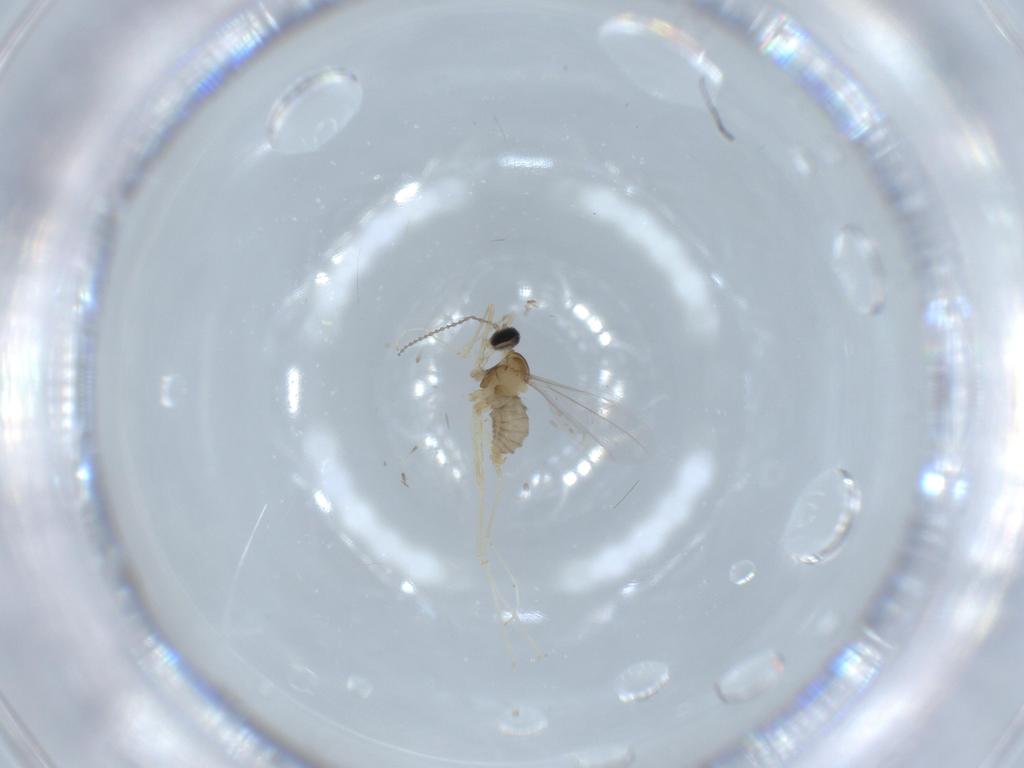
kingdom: Animalia
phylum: Arthropoda
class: Insecta
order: Diptera
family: Cecidomyiidae
